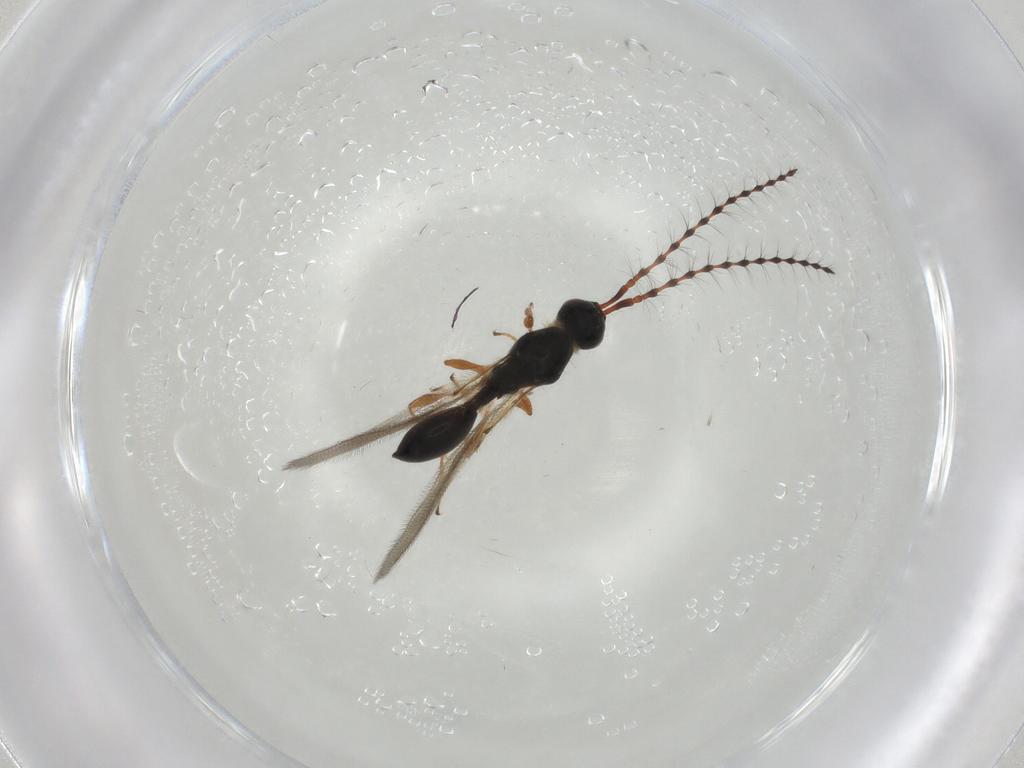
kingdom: Animalia
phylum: Arthropoda
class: Insecta
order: Hymenoptera
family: Diapriidae
